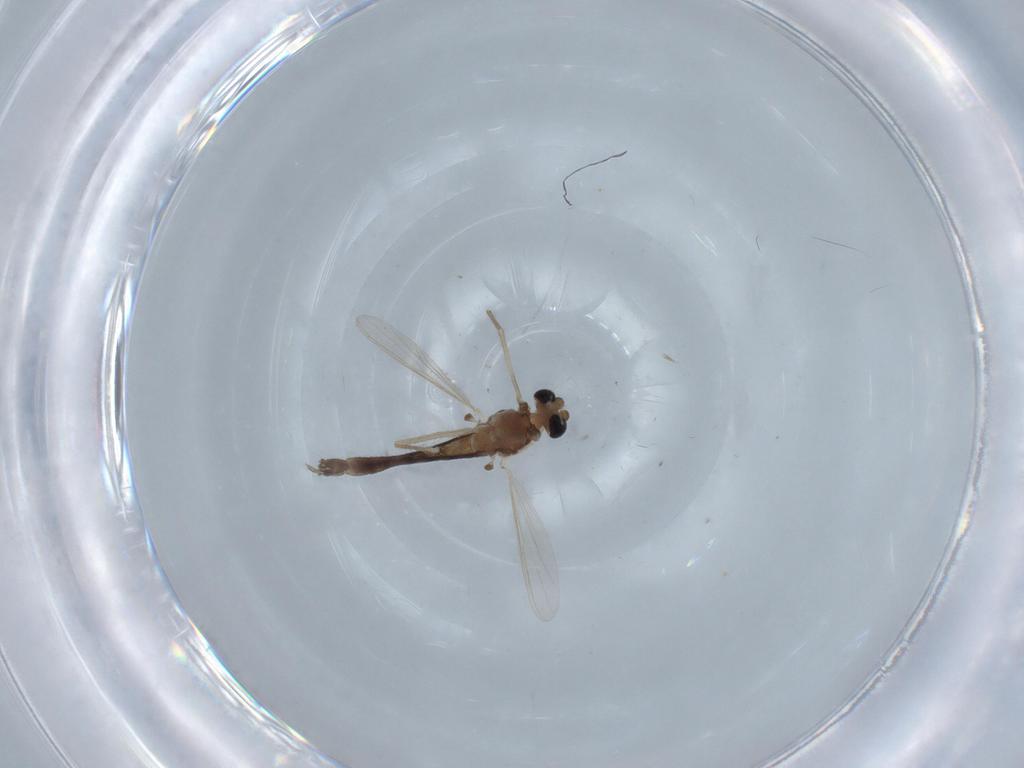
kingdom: Animalia
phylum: Arthropoda
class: Insecta
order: Diptera
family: Chironomidae
